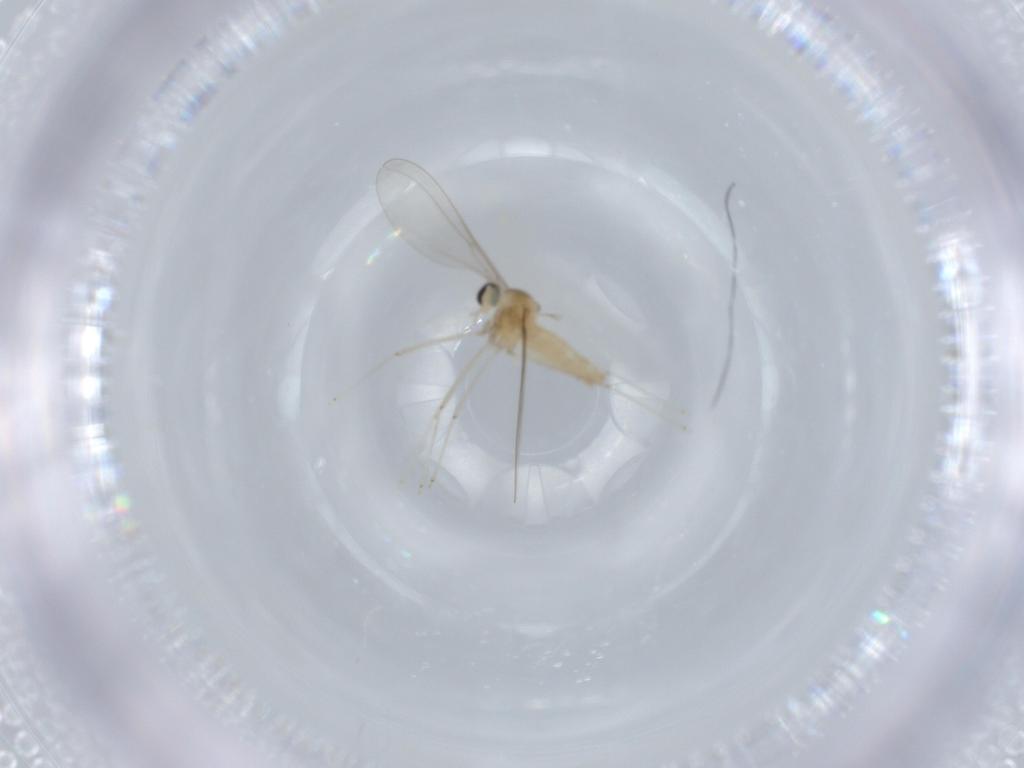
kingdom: Animalia
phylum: Arthropoda
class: Insecta
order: Diptera
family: Cecidomyiidae
